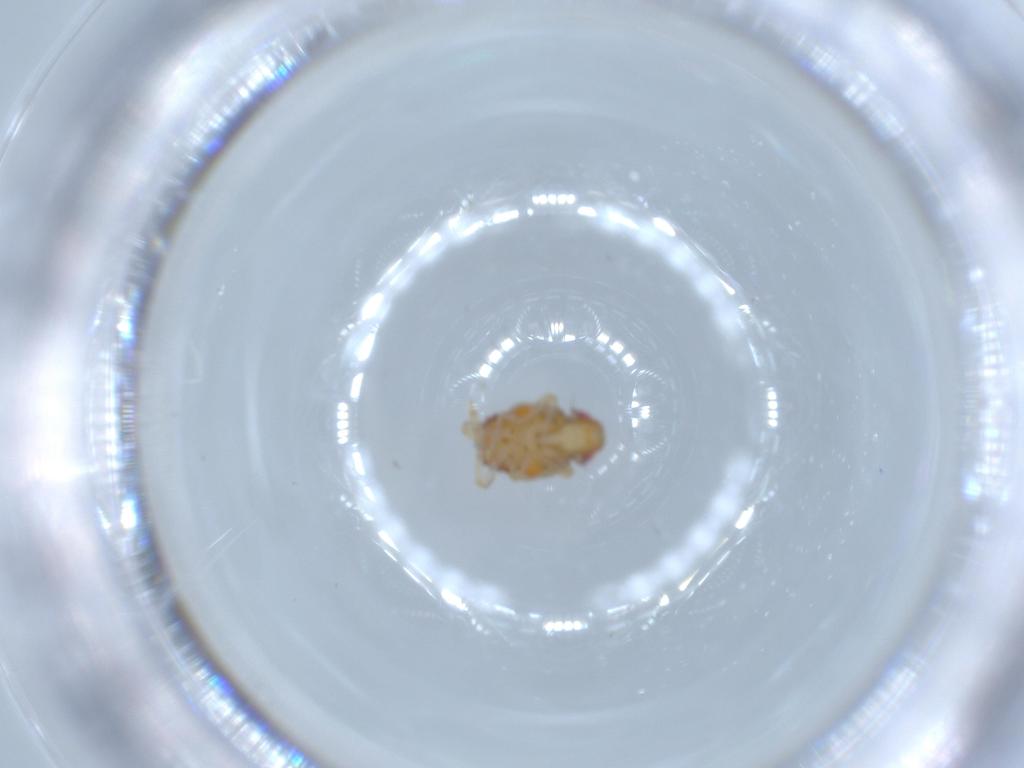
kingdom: Animalia
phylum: Arthropoda
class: Insecta
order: Hemiptera
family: Issidae
